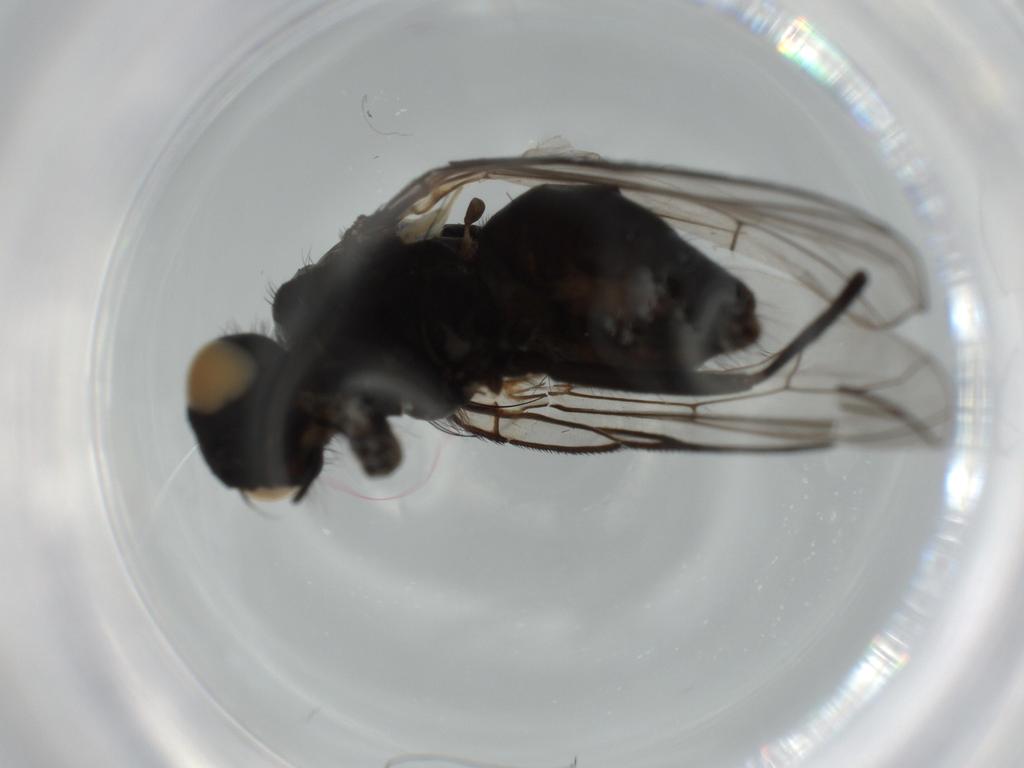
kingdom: Animalia
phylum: Arthropoda
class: Insecta
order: Diptera
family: Muscidae
